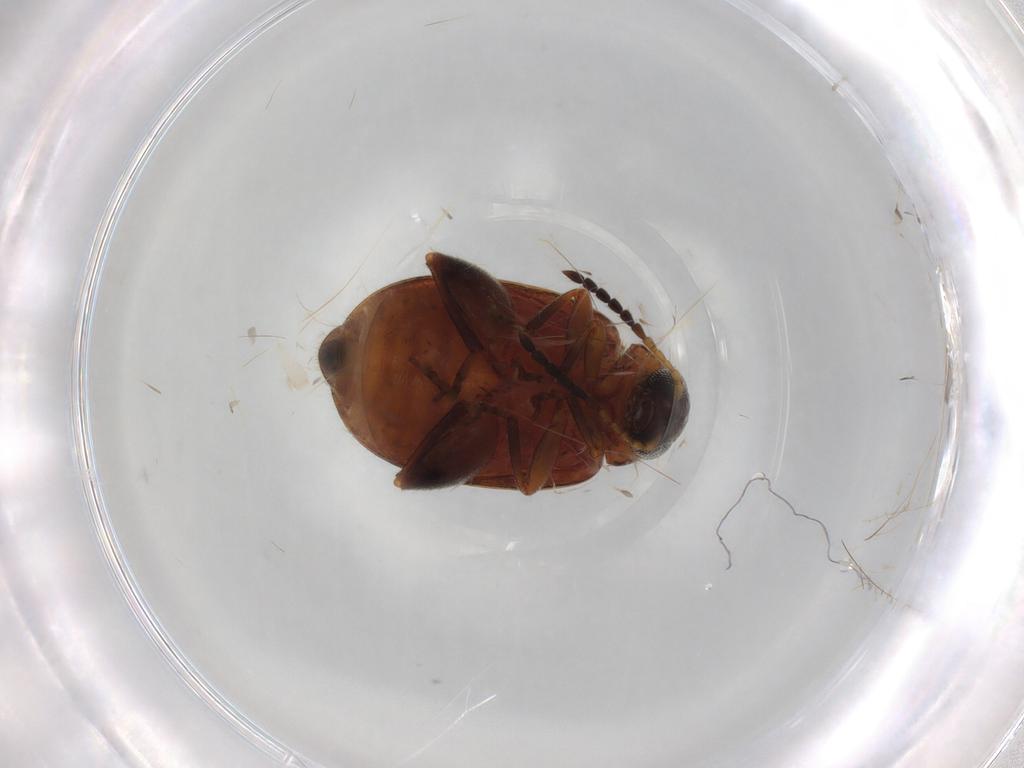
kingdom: Animalia
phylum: Arthropoda
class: Insecta
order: Coleoptera
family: Chrysomelidae
